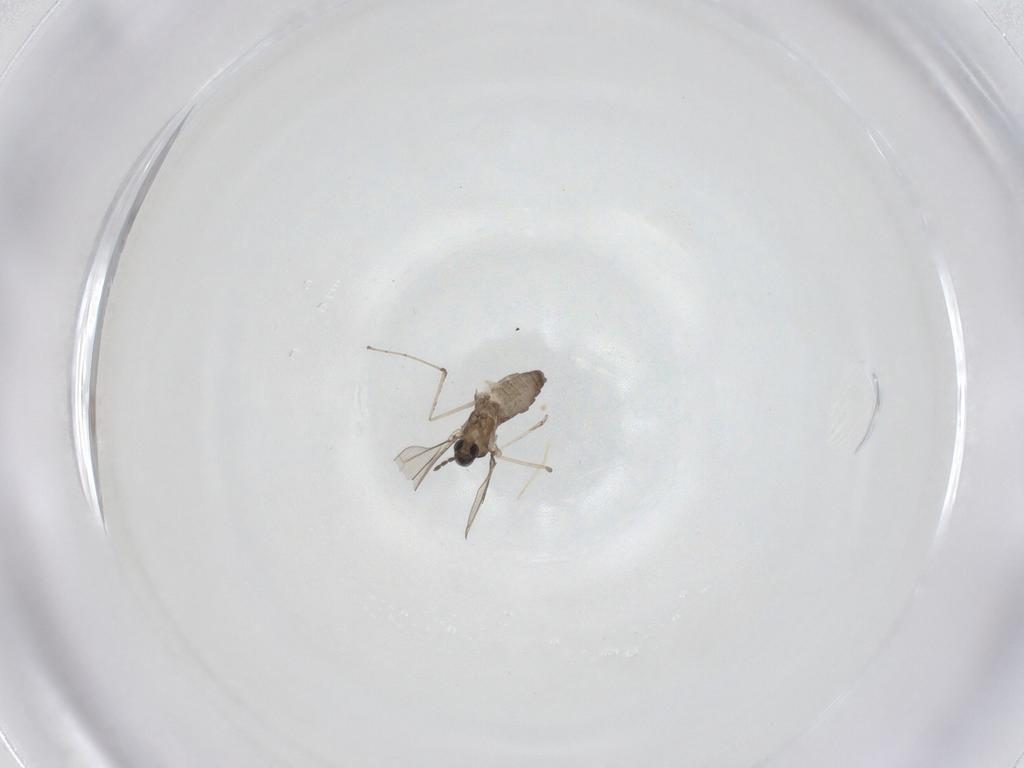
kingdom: Animalia
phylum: Arthropoda
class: Insecta
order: Diptera
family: Cecidomyiidae
